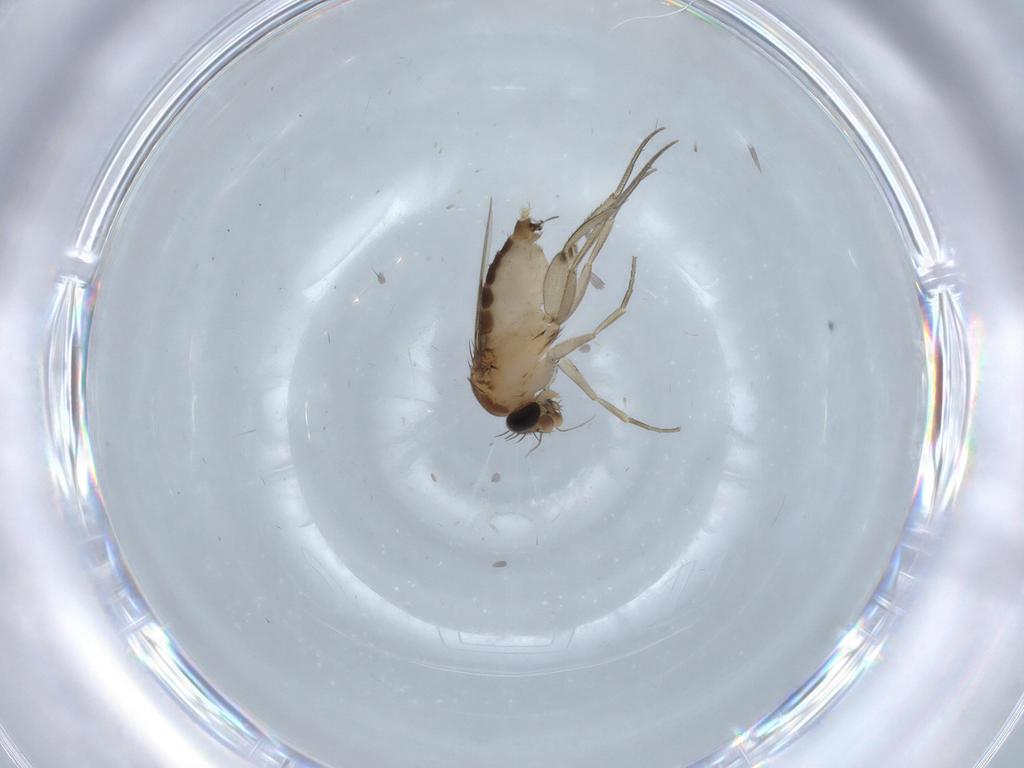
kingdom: Animalia
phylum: Arthropoda
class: Insecta
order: Diptera
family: Phoridae
